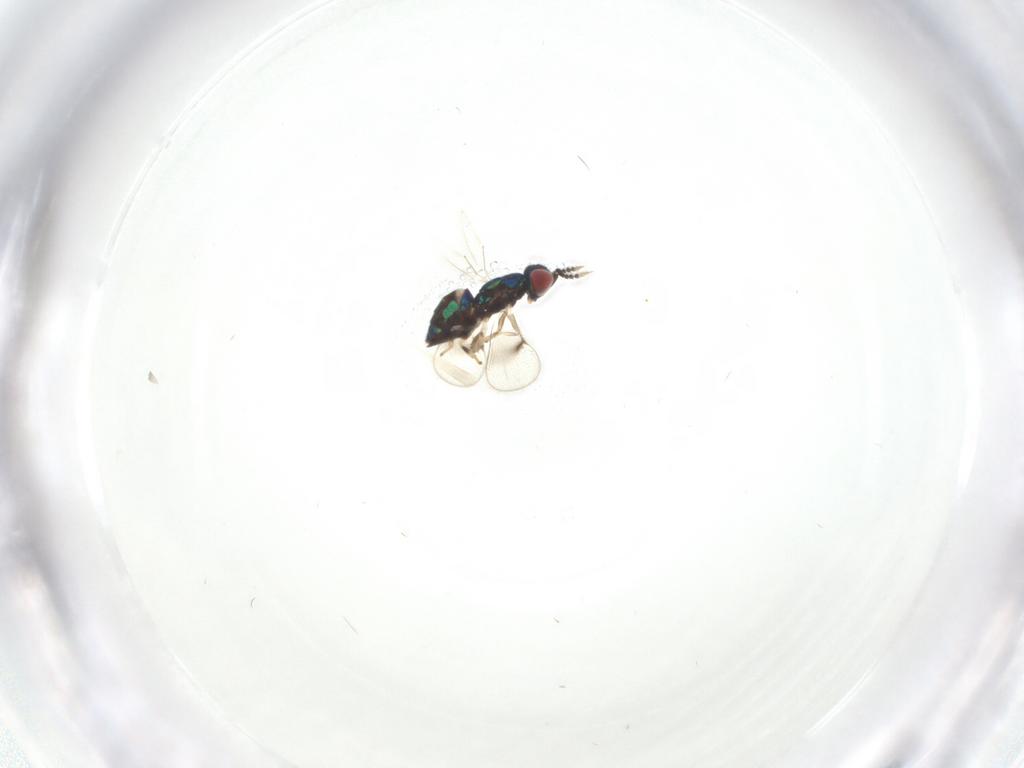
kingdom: Animalia
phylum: Arthropoda
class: Insecta
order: Hymenoptera
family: Eulophidae
